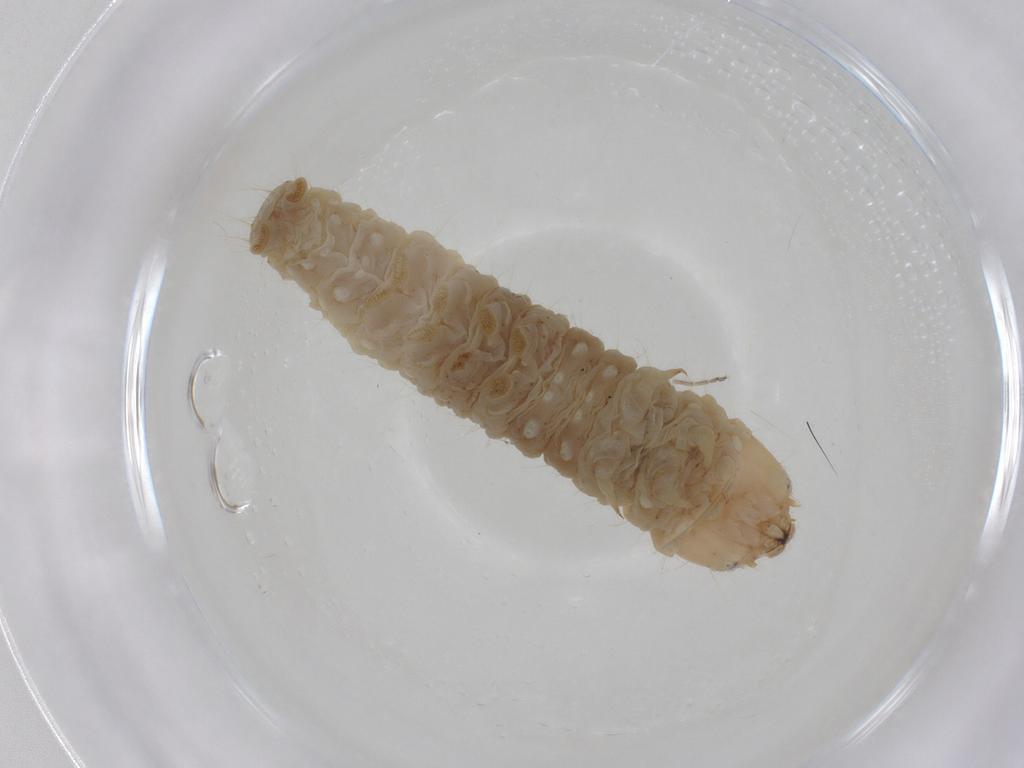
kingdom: Animalia
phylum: Arthropoda
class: Insecta
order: Lepidoptera
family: Tortricidae
